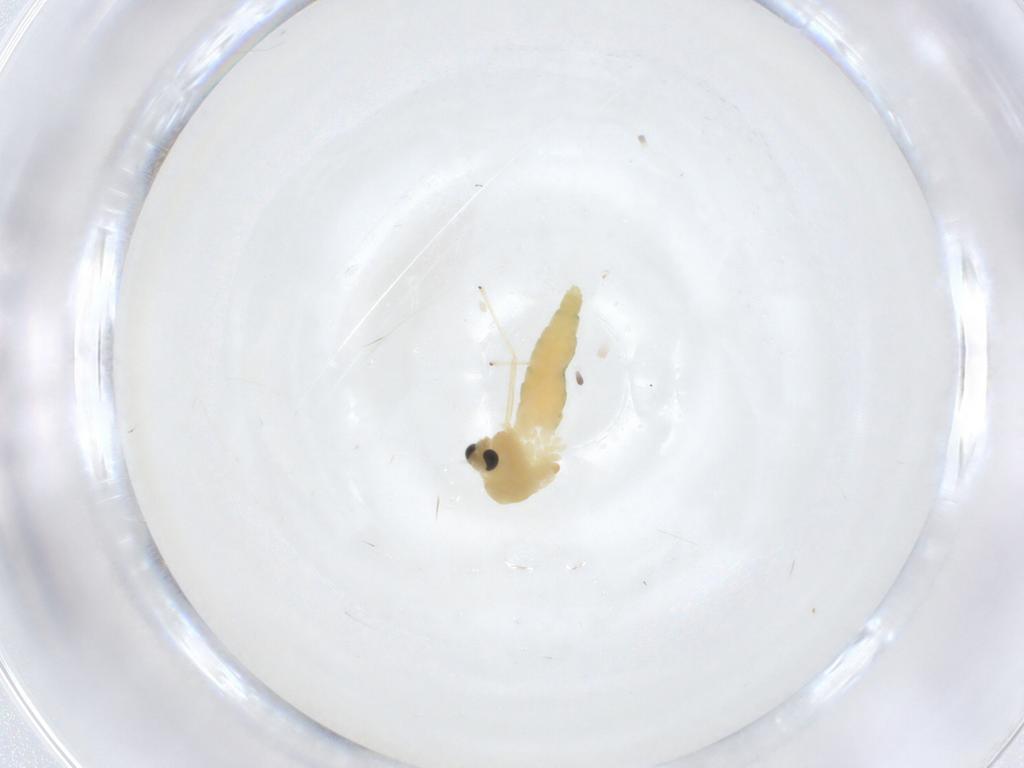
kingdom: Animalia
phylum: Arthropoda
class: Insecta
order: Diptera
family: Chironomidae
